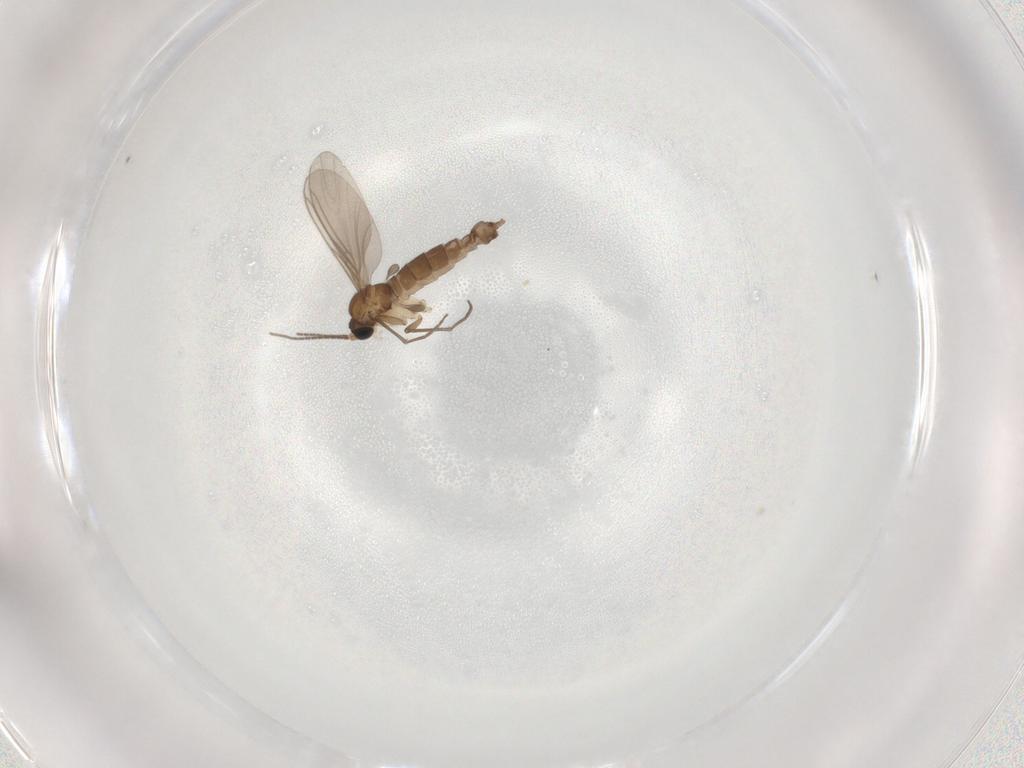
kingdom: Animalia
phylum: Arthropoda
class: Insecta
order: Diptera
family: Sciaridae
